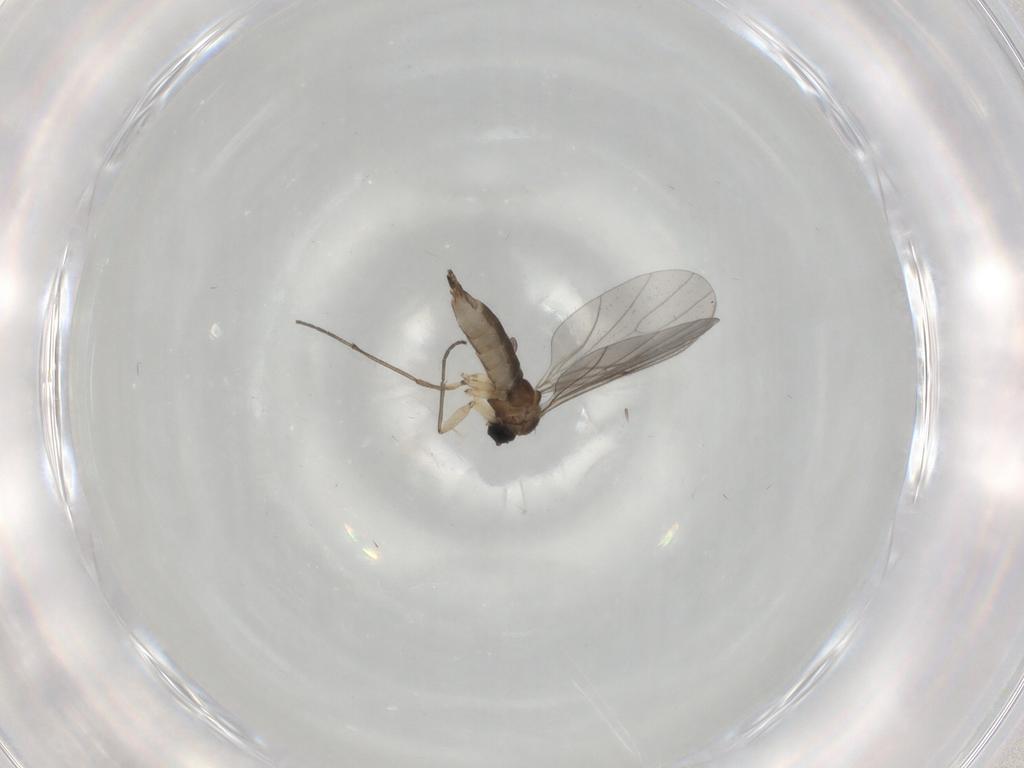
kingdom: Animalia
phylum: Arthropoda
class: Insecta
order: Diptera
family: Sciaridae
